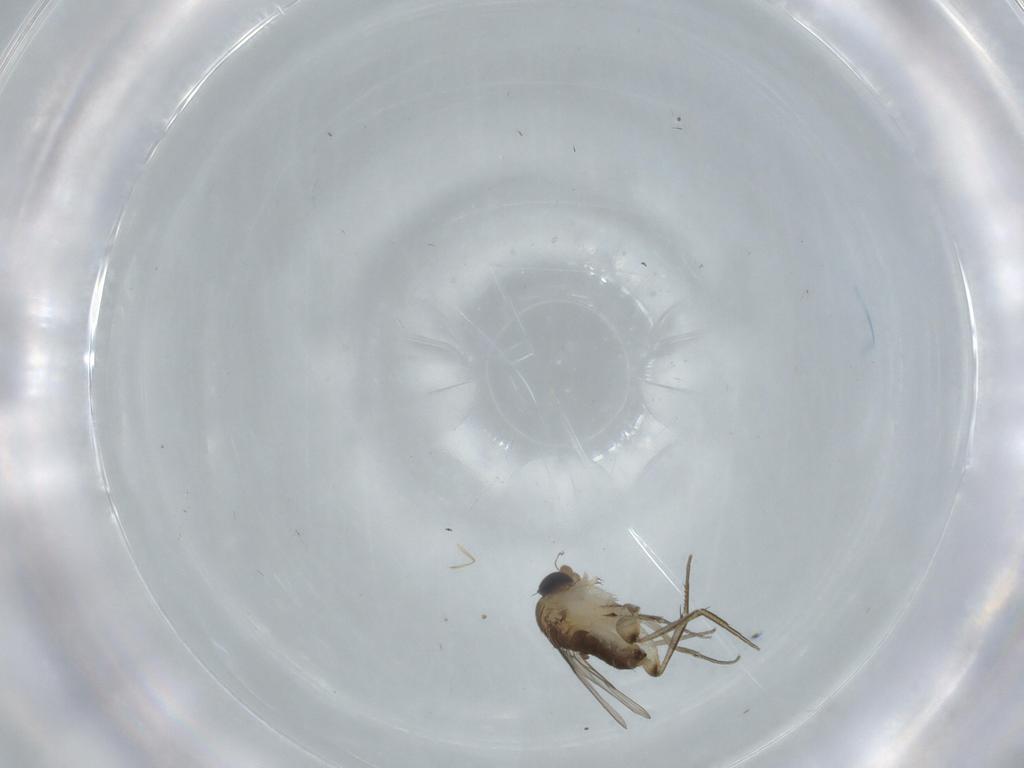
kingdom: Animalia
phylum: Arthropoda
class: Insecta
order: Diptera
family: Phoridae
